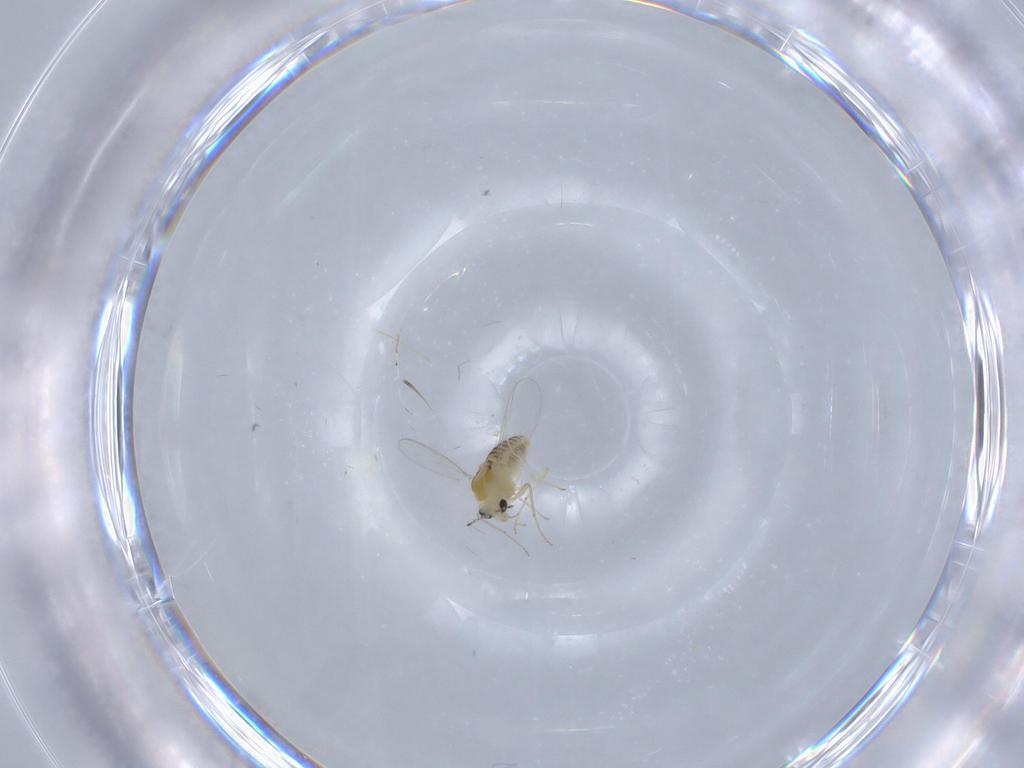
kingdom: Animalia
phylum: Arthropoda
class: Insecta
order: Diptera
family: Chironomidae
